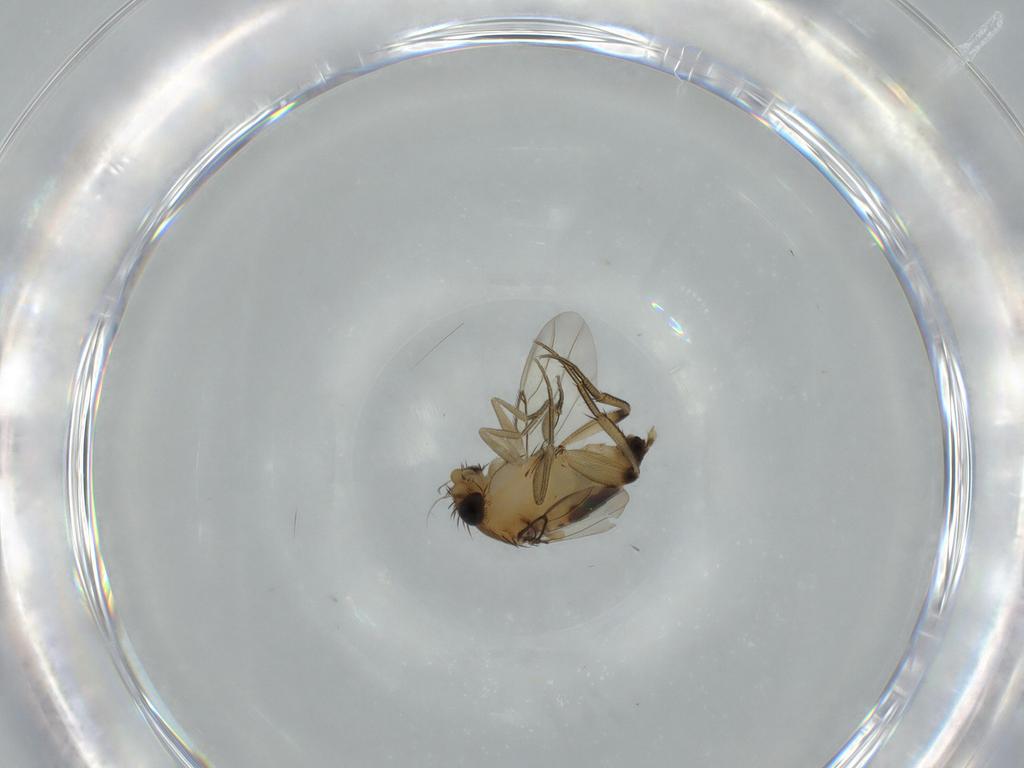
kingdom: Animalia
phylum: Arthropoda
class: Insecta
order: Diptera
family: Phoridae
